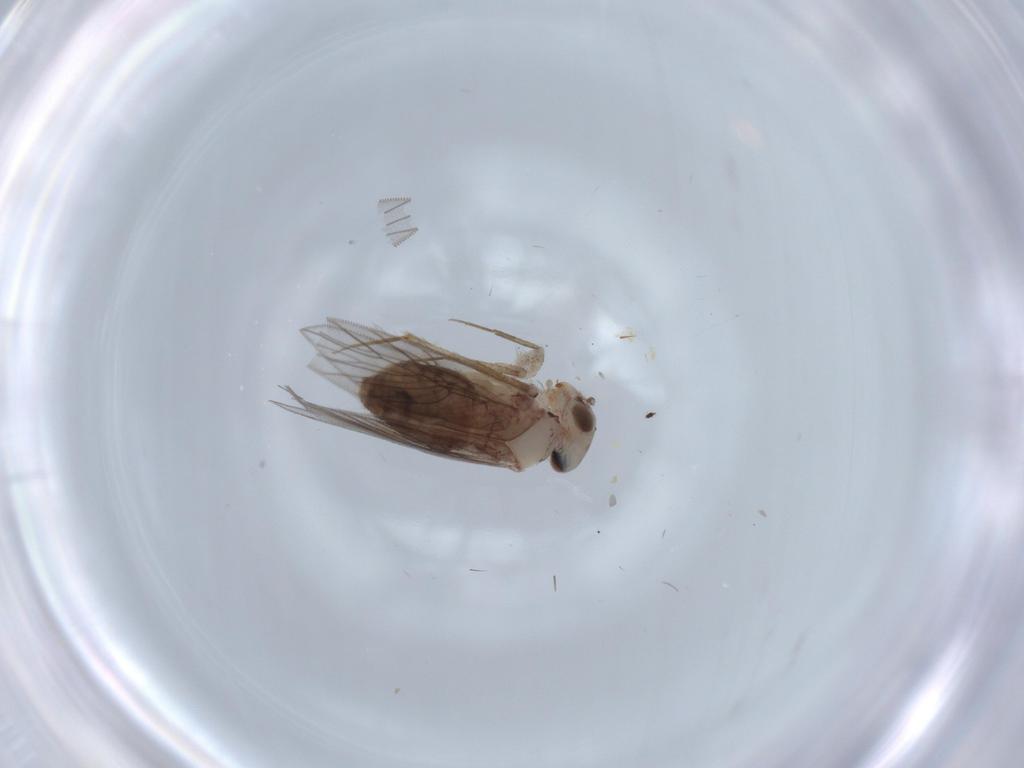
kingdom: Animalia
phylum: Arthropoda
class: Insecta
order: Psocodea
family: Lepidopsocidae
